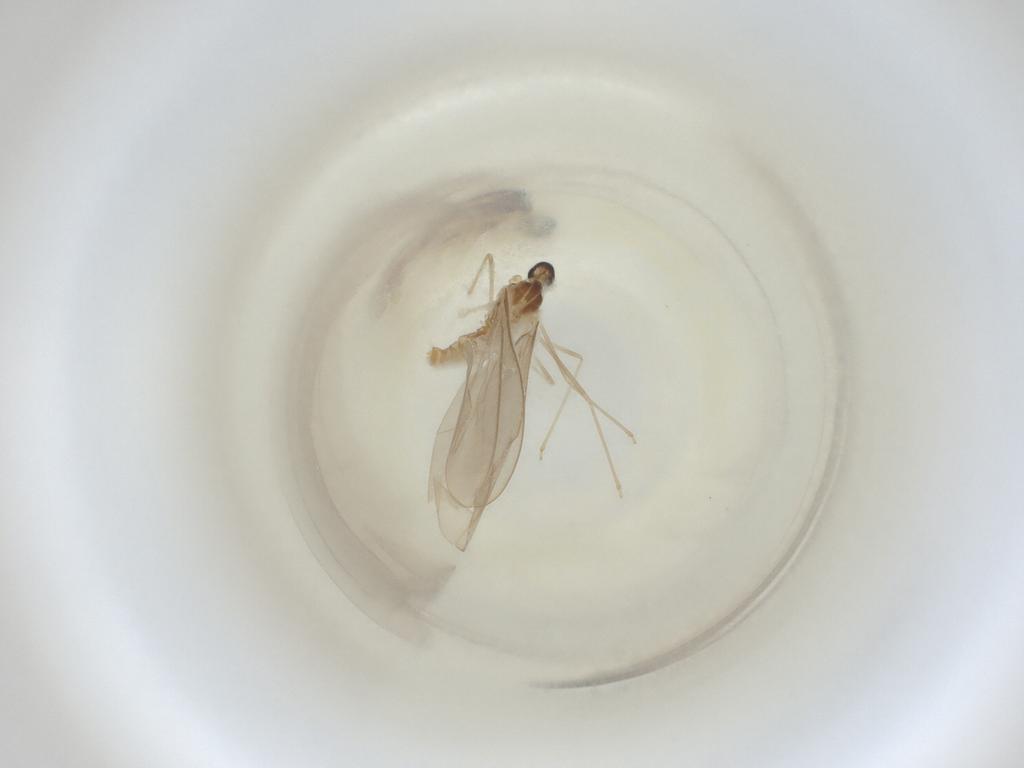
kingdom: Animalia
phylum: Arthropoda
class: Insecta
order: Diptera
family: Cecidomyiidae
